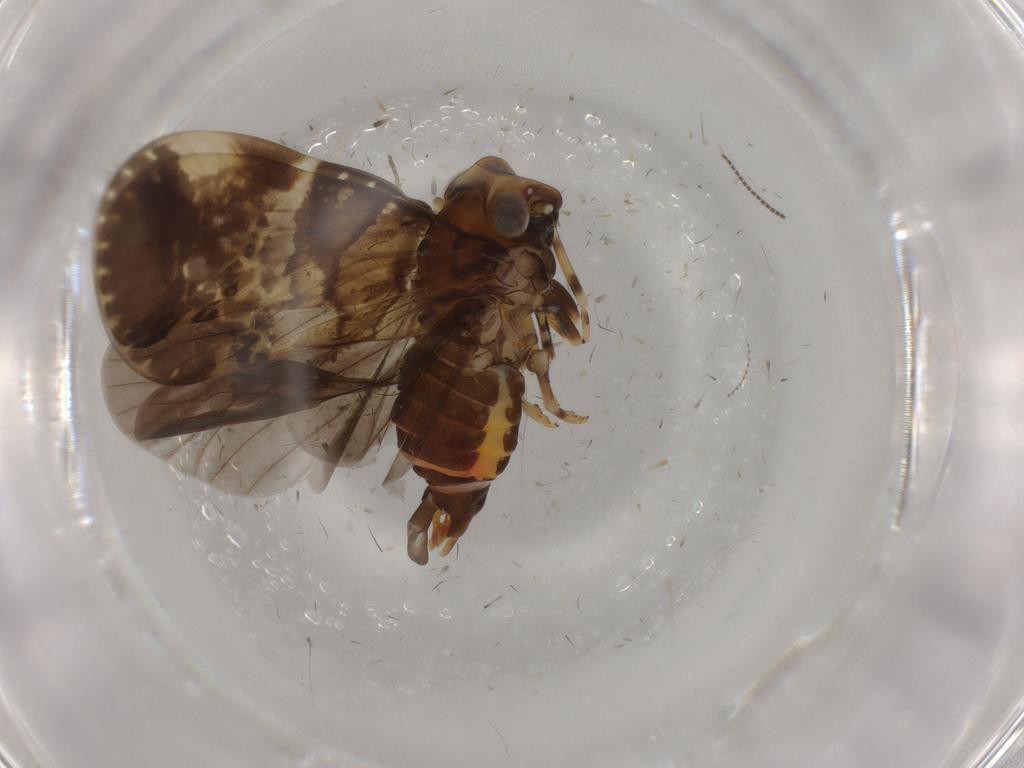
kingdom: Animalia
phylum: Arthropoda
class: Insecta
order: Hemiptera
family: Cixiidae
